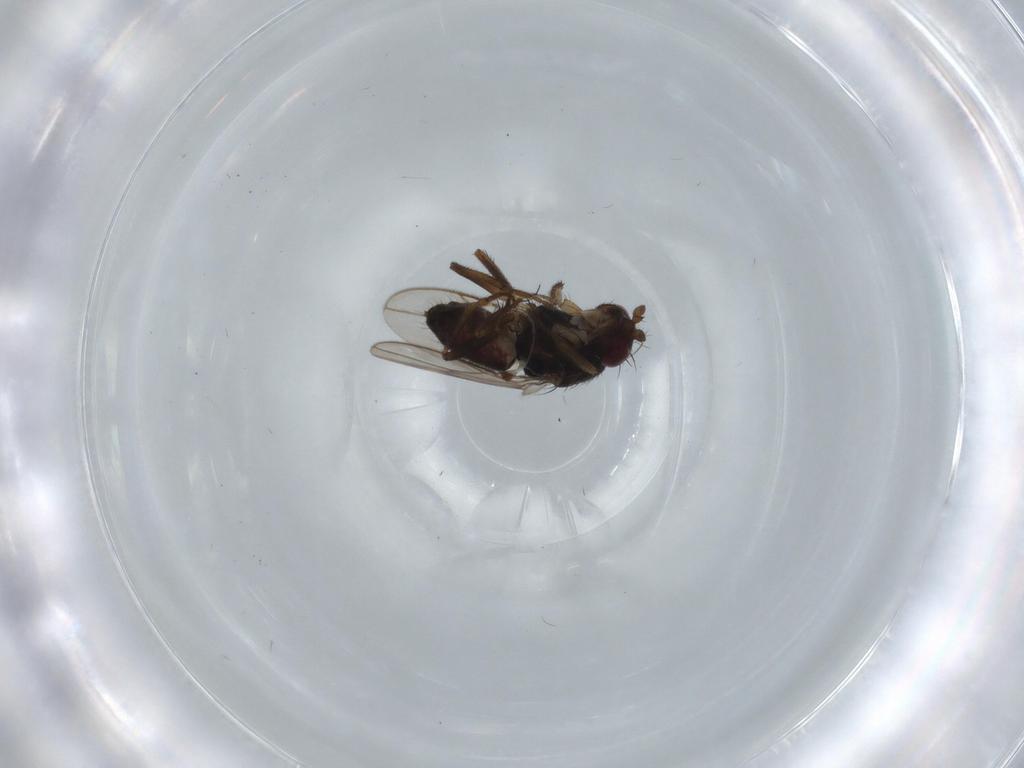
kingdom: Animalia
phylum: Arthropoda
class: Insecta
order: Diptera
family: Sphaeroceridae
